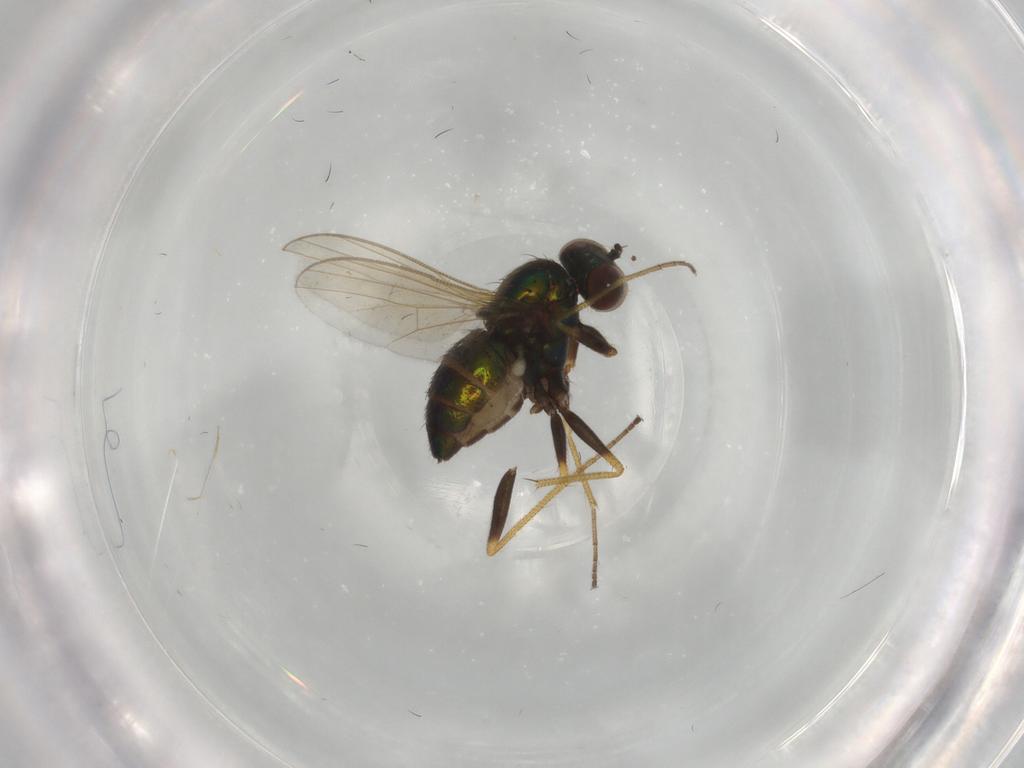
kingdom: Animalia
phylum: Arthropoda
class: Insecta
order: Diptera
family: Dolichopodidae
